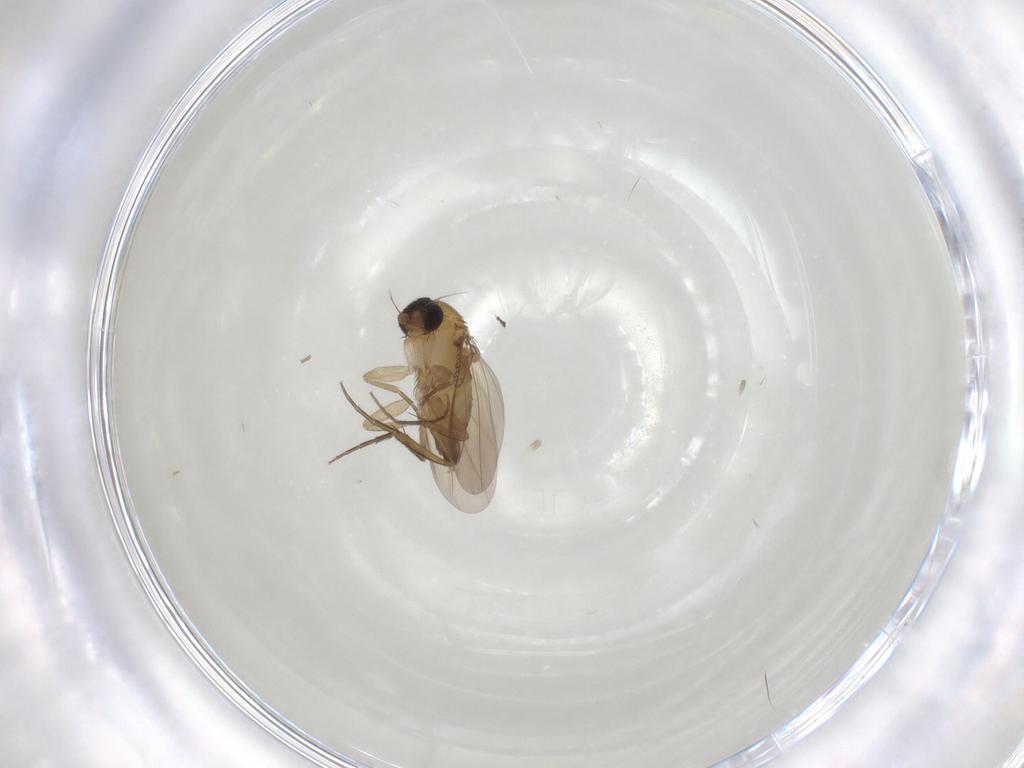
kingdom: Animalia
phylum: Arthropoda
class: Insecta
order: Diptera
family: Phoridae
